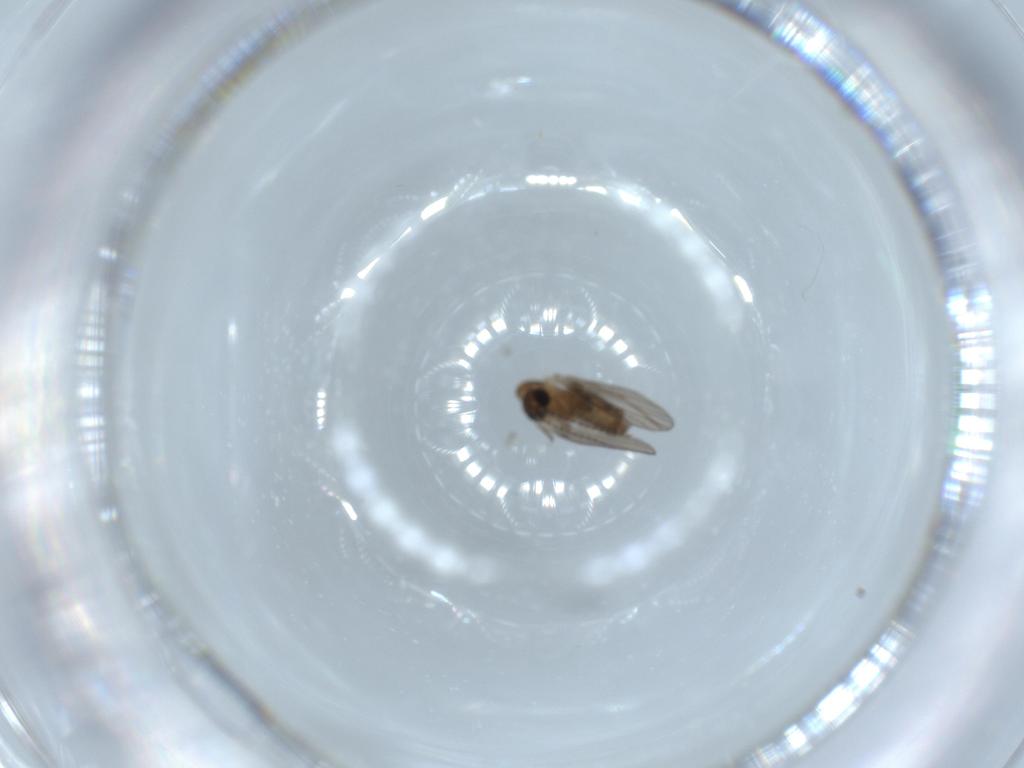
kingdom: Animalia
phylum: Arthropoda
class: Insecta
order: Diptera
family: Psychodidae
